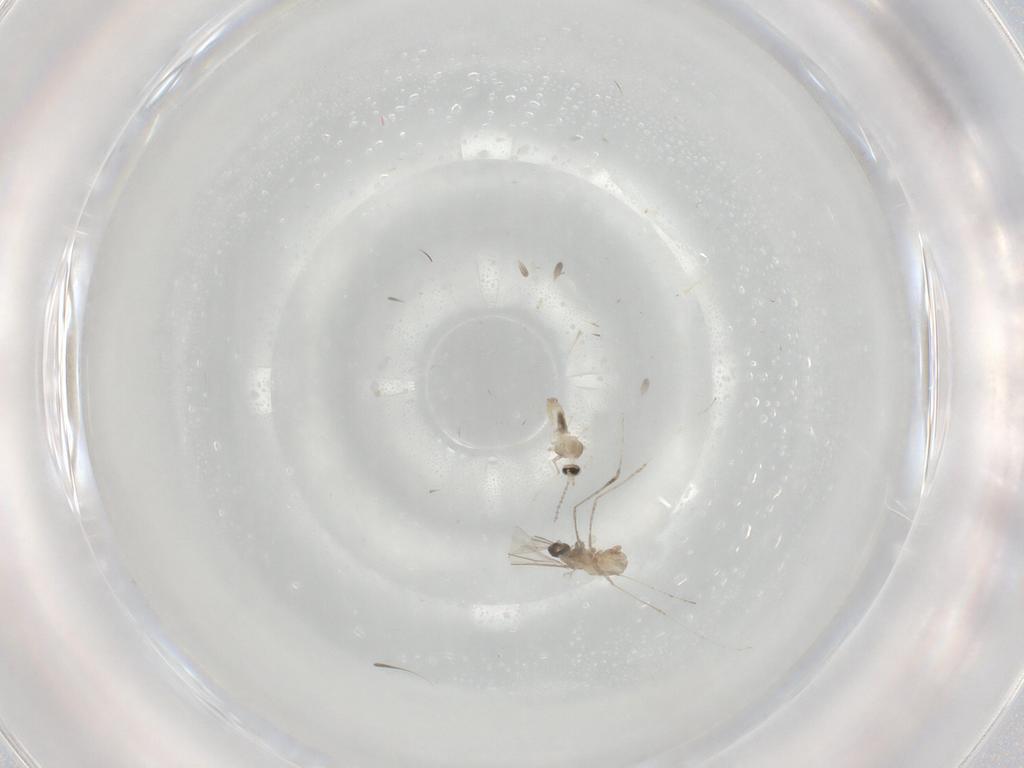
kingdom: Animalia
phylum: Arthropoda
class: Insecta
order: Diptera
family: Cecidomyiidae
